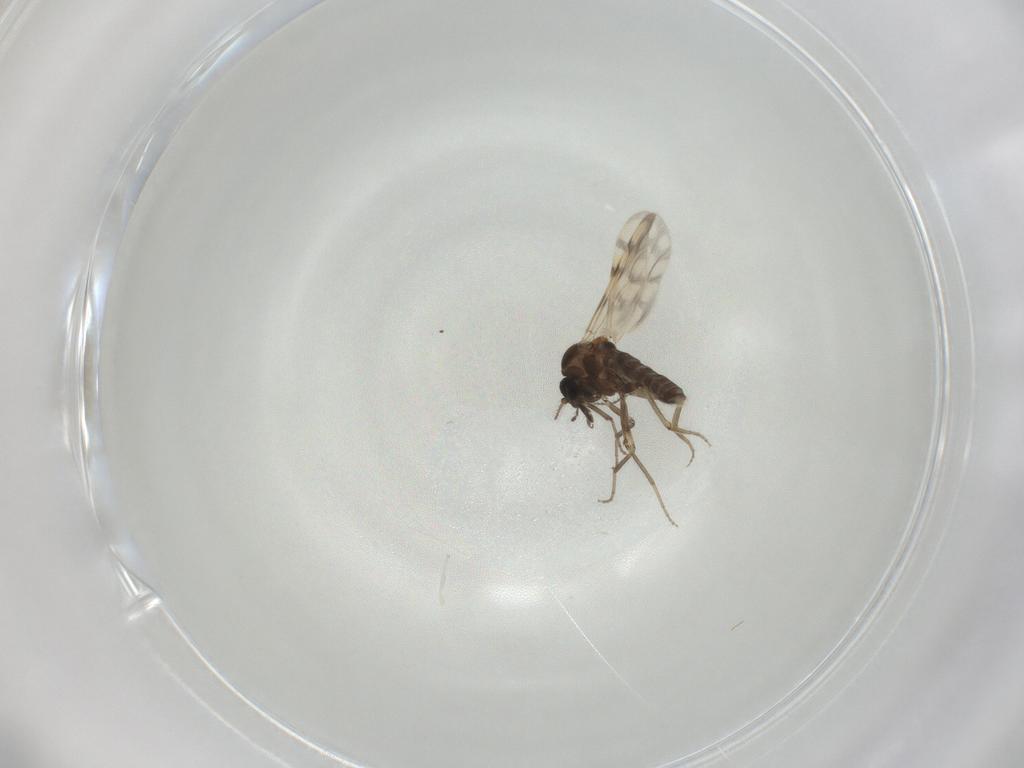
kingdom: Animalia
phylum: Arthropoda
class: Insecta
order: Diptera
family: Ceratopogonidae
